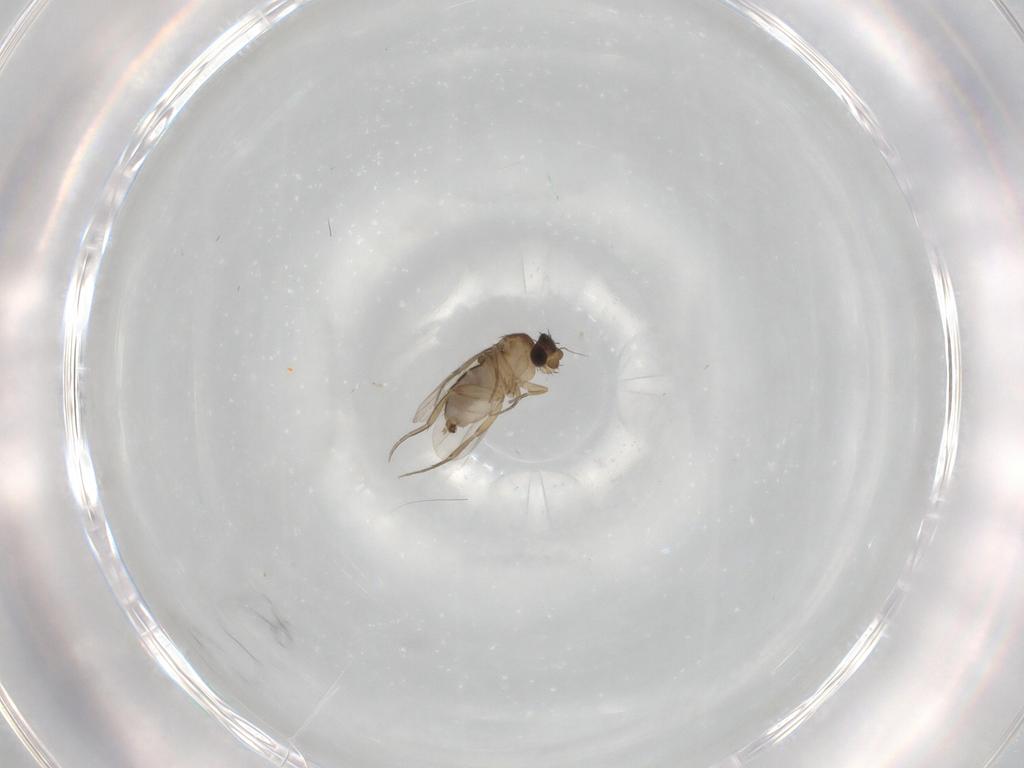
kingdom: Animalia
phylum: Arthropoda
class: Insecta
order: Diptera
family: Phoridae
